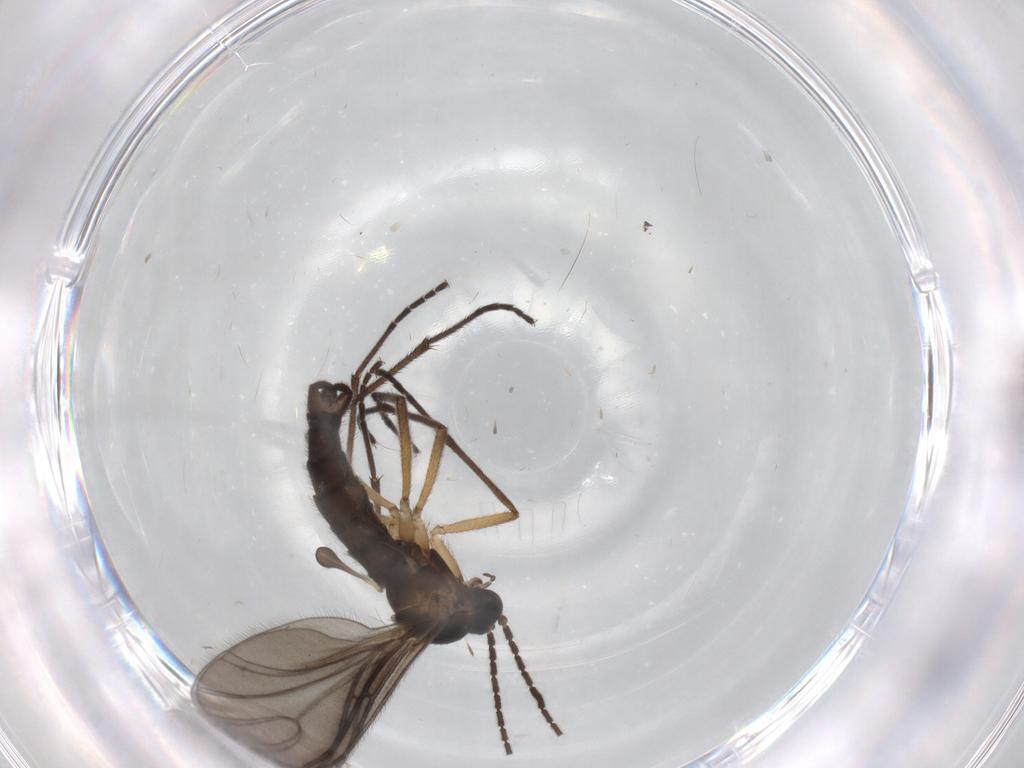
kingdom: Animalia
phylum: Arthropoda
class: Insecta
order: Diptera
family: Sciaridae
